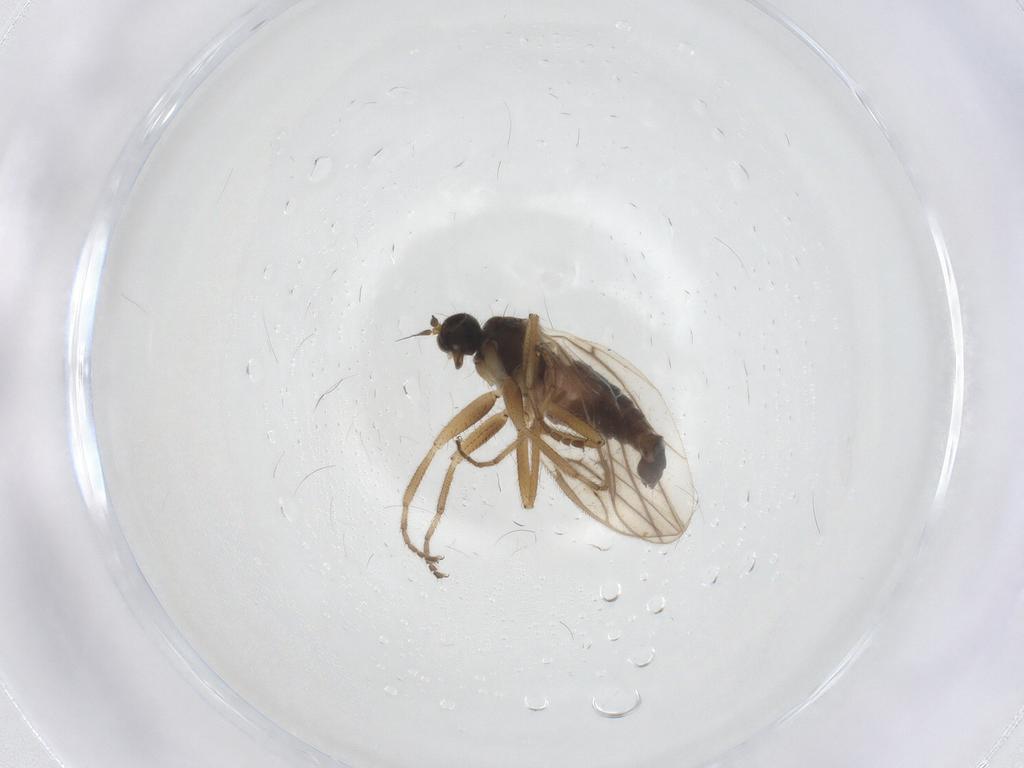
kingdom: Animalia
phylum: Arthropoda
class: Insecta
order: Diptera
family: Hybotidae
